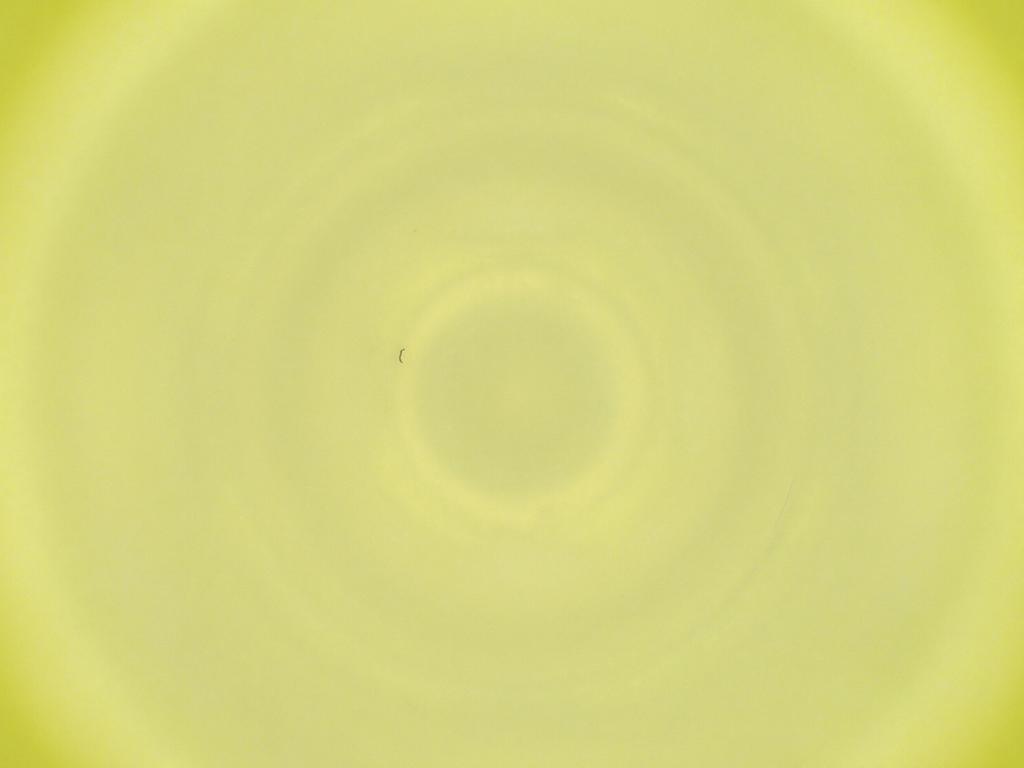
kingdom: Animalia
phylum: Arthropoda
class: Insecta
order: Diptera
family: Cecidomyiidae
